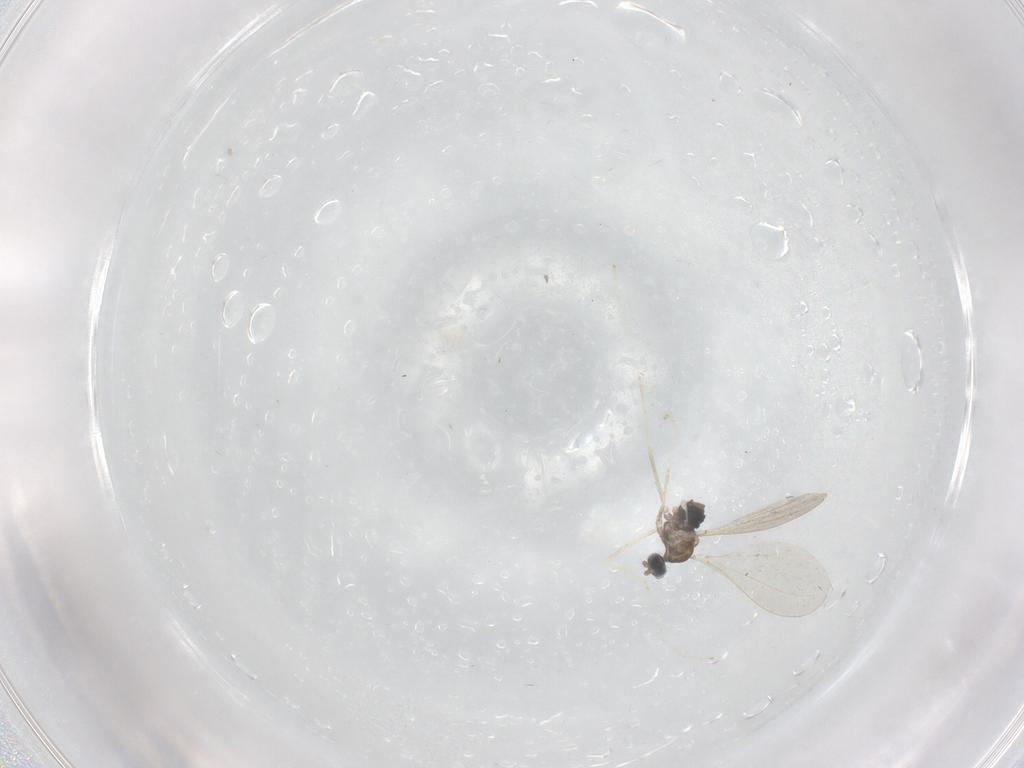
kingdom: Animalia
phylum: Arthropoda
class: Insecta
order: Diptera
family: Cecidomyiidae
